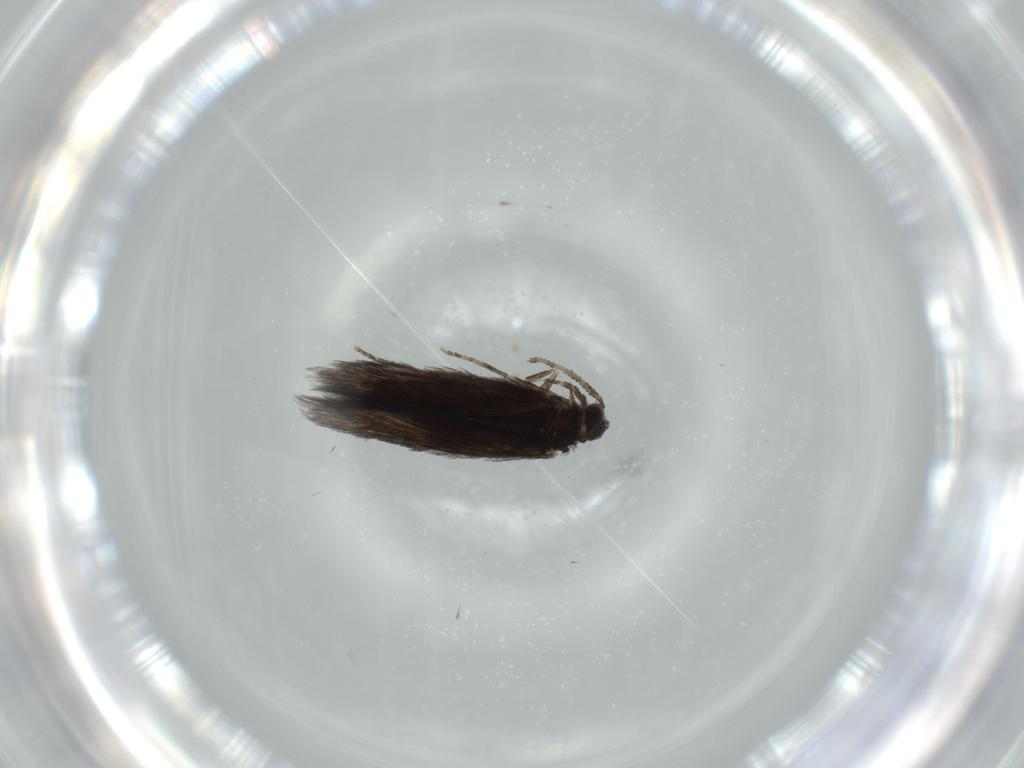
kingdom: Animalia
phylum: Arthropoda
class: Insecta
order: Trichoptera
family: Hydroptilidae
